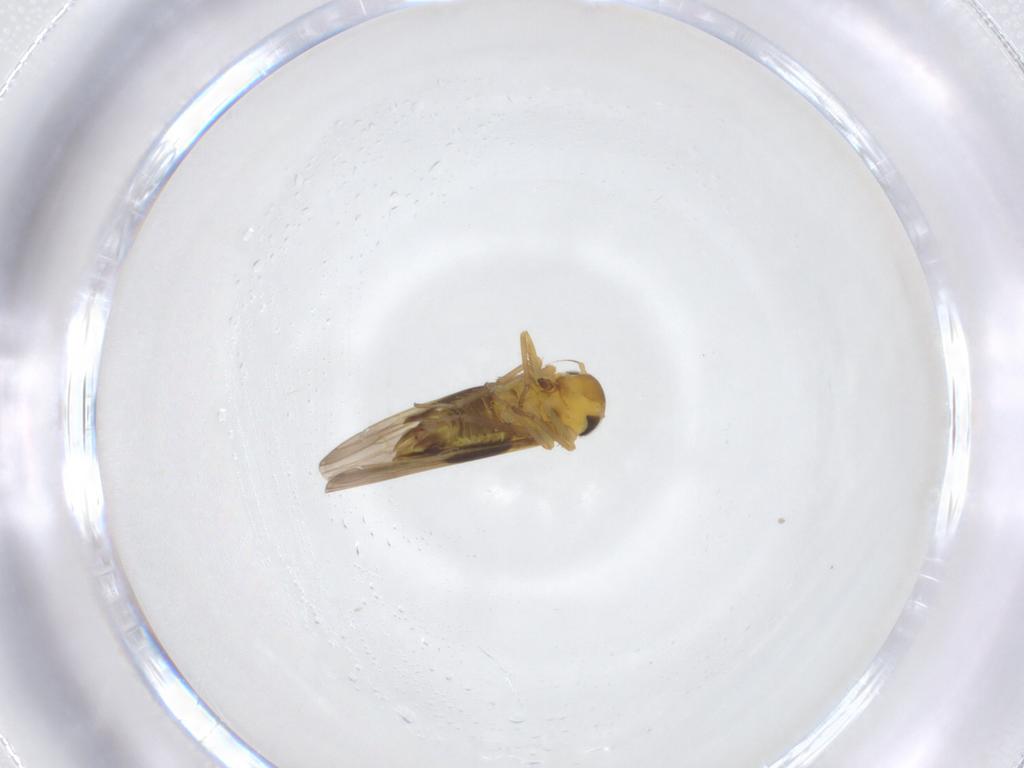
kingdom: Animalia
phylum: Arthropoda
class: Insecta
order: Hemiptera
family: Cicadellidae
